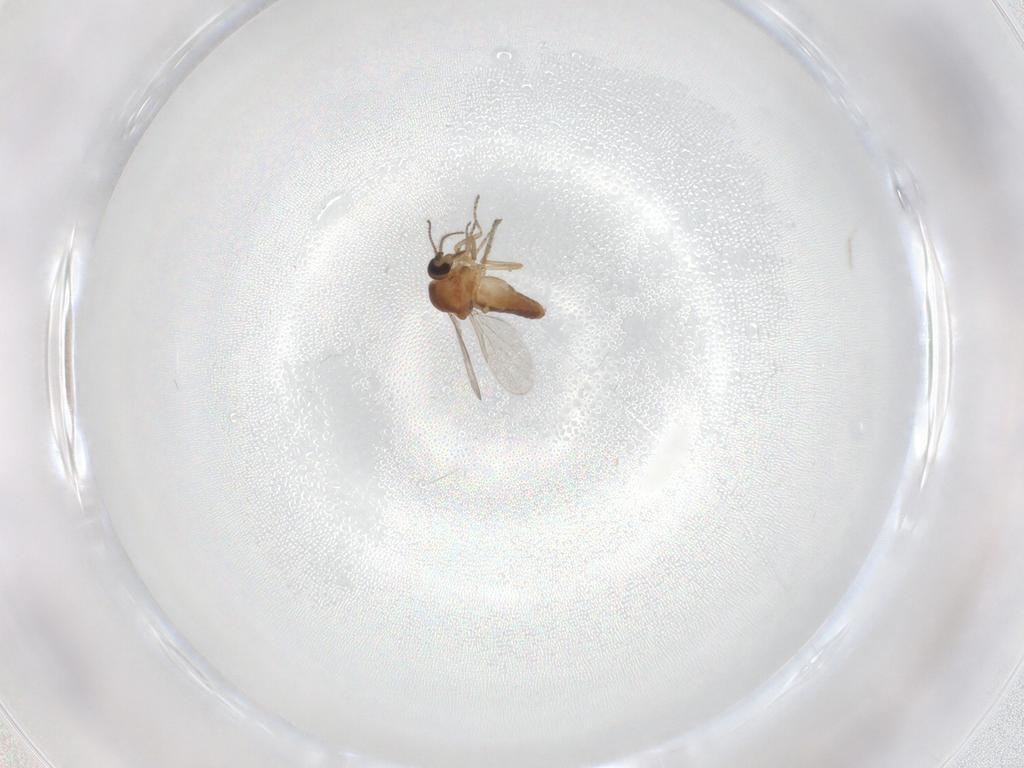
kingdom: Animalia
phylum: Arthropoda
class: Insecta
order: Diptera
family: Ceratopogonidae
